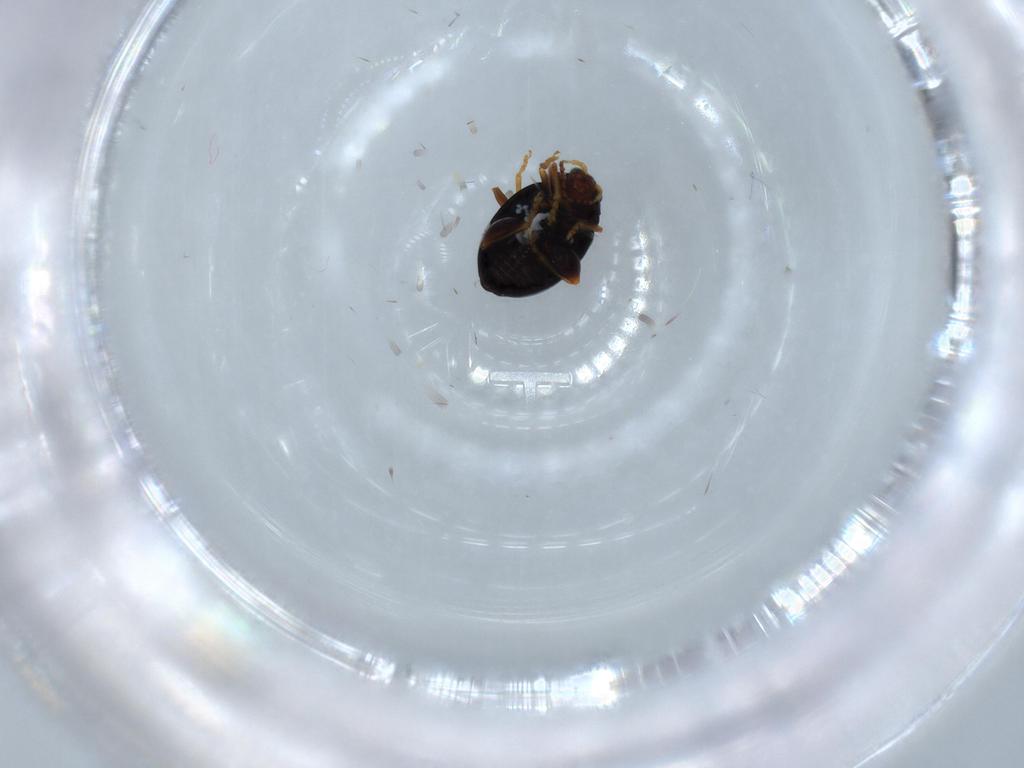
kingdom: Animalia
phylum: Arthropoda
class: Insecta
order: Coleoptera
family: Chrysomelidae
